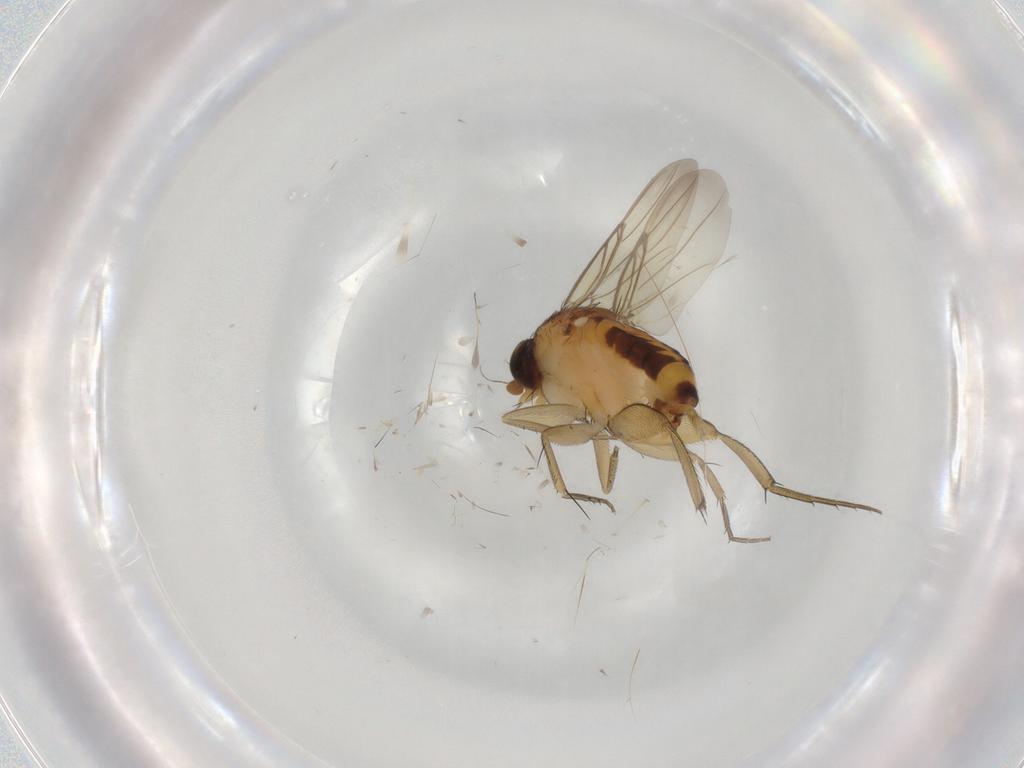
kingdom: Animalia
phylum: Arthropoda
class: Insecta
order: Diptera
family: Phoridae
